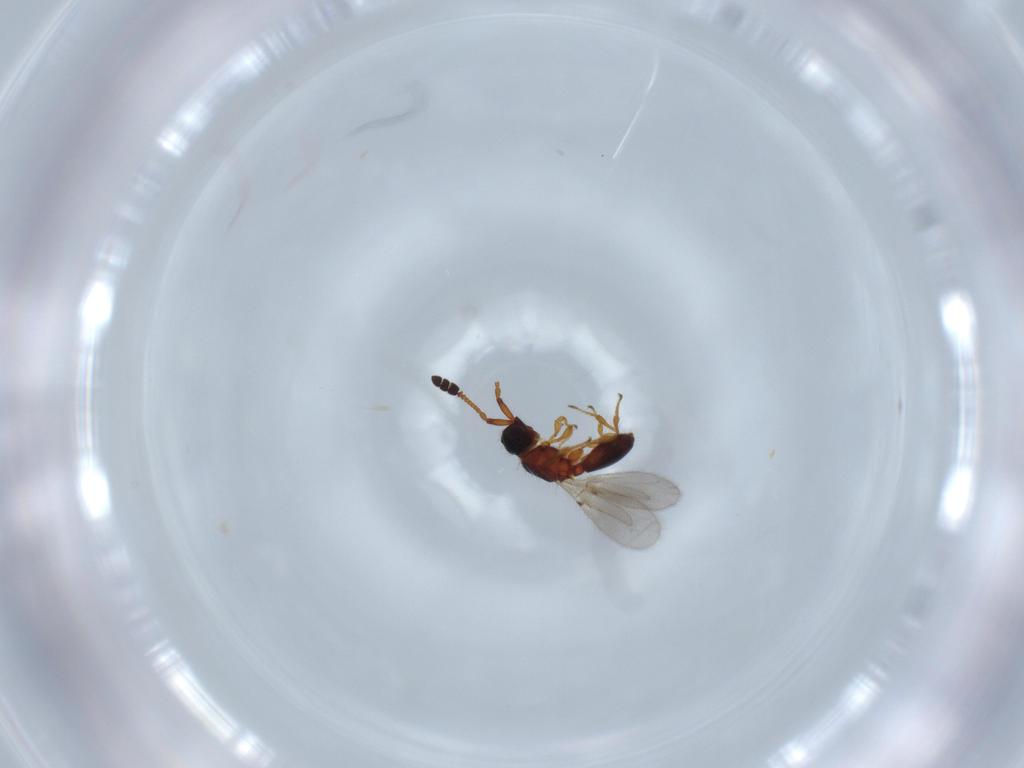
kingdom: Animalia
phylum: Arthropoda
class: Insecta
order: Hymenoptera
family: Diapriidae
